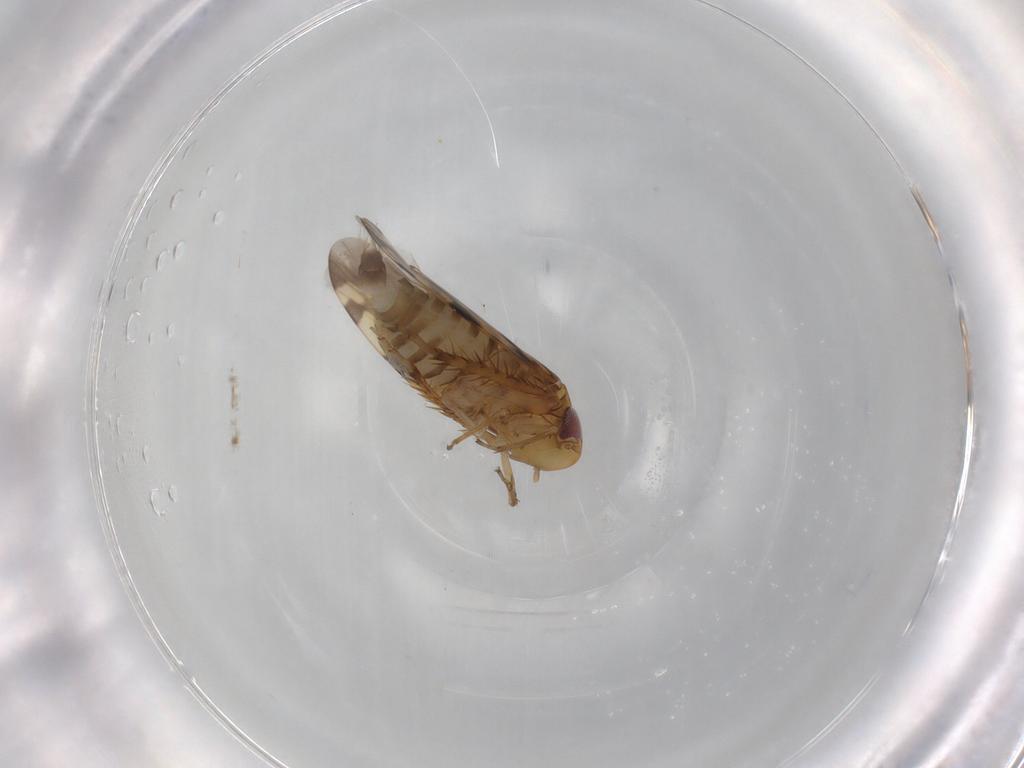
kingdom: Animalia
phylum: Arthropoda
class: Insecta
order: Hemiptera
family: Cicadellidae
